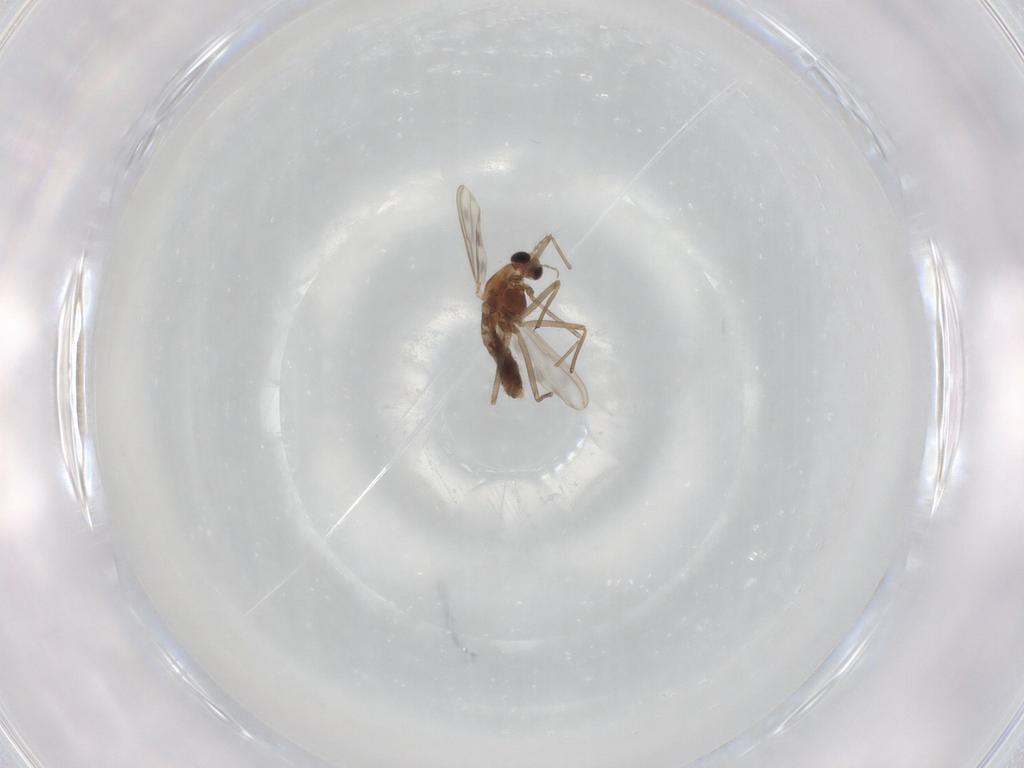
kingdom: Animalia
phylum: Arthropoda
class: Insecta
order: Diptera
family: Chironomidae
